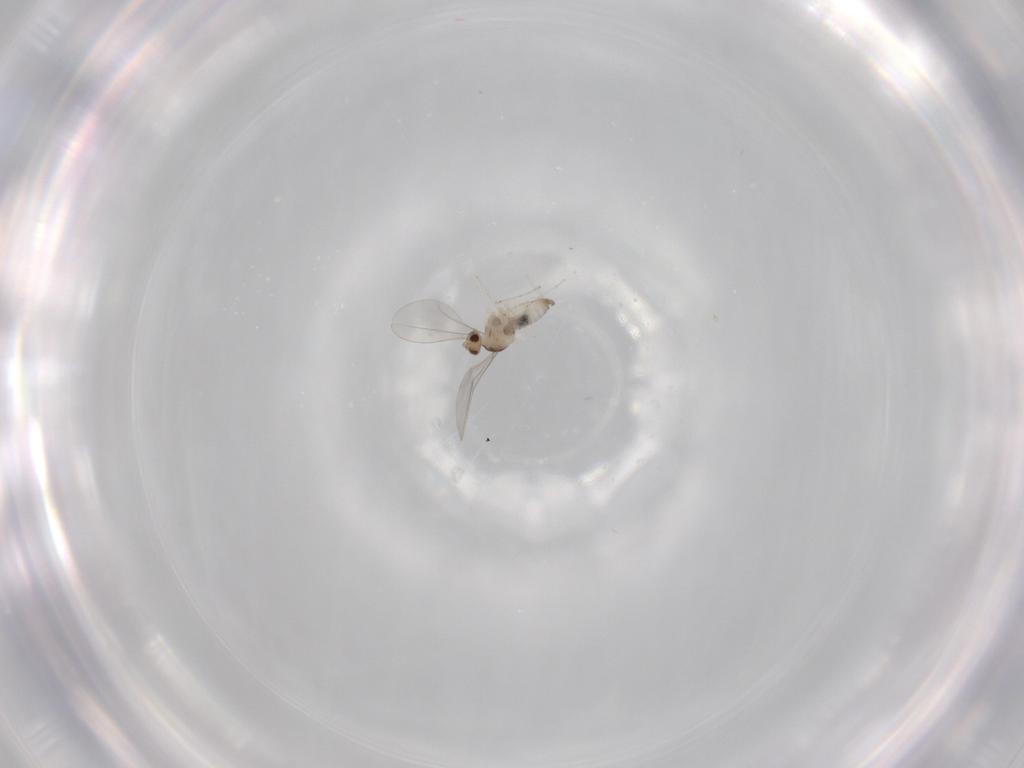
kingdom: Animalia
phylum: Arthropoda
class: Insecta
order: Diptera
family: Cecidomyiidae
